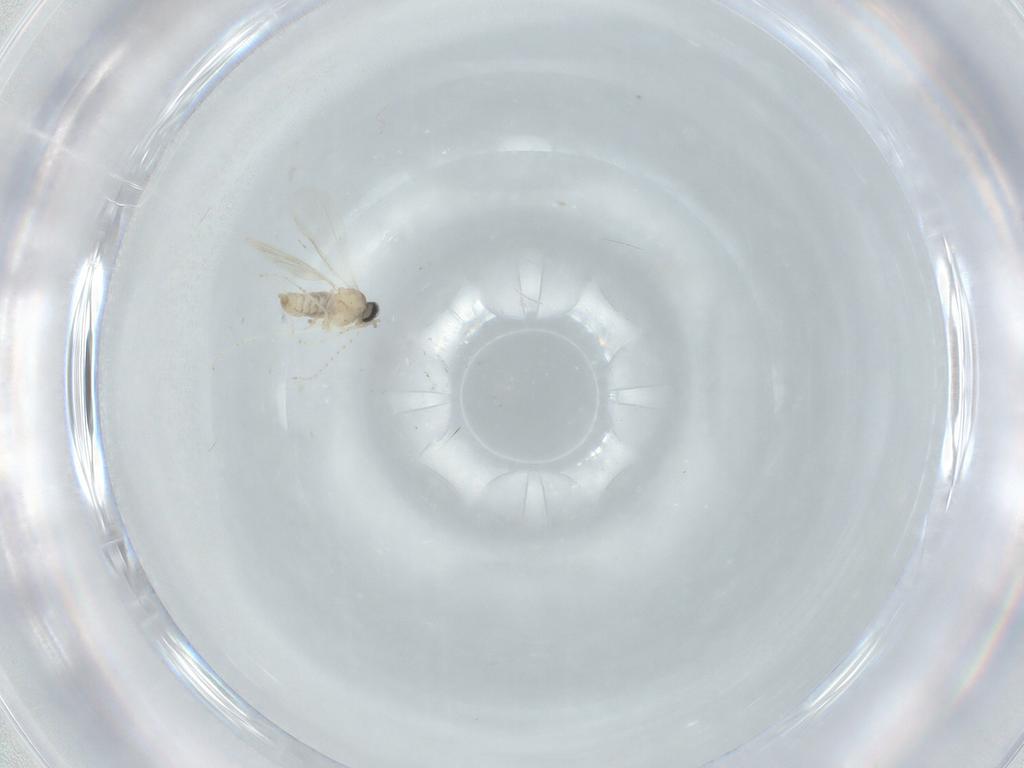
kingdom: Animalia
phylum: Arthropoda
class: Insecta
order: Diptera
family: Cecidomyiidae
